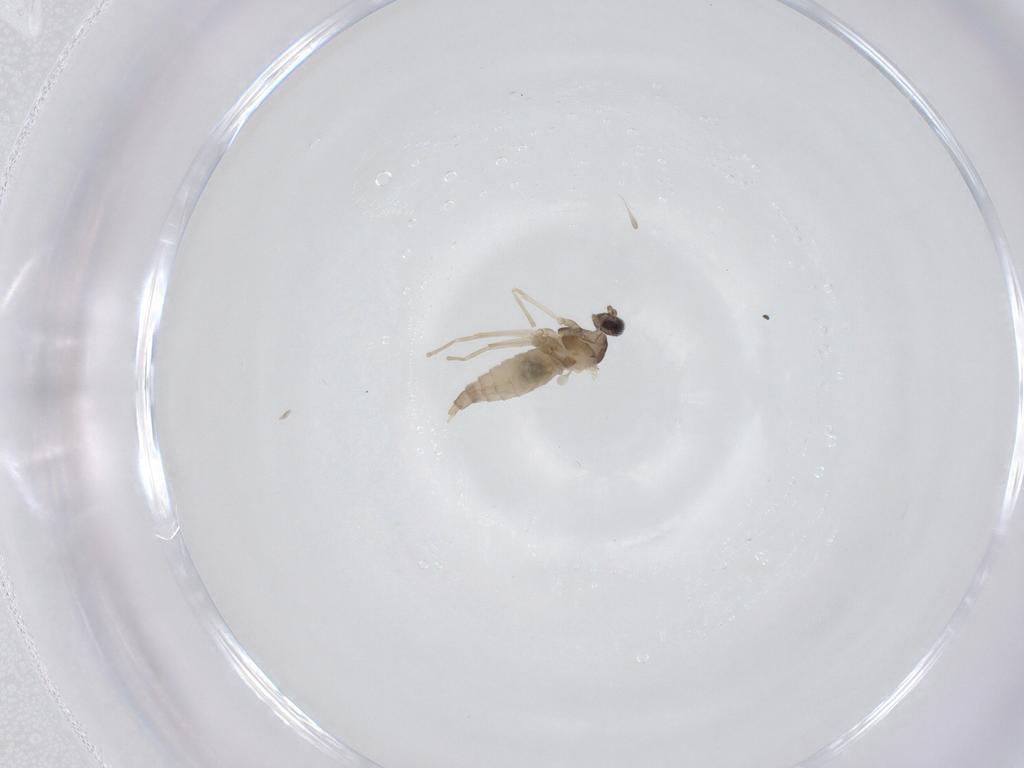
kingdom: Animalia
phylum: Arthropoda
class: Insecta
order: Diptera
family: Cecidomyiidae
